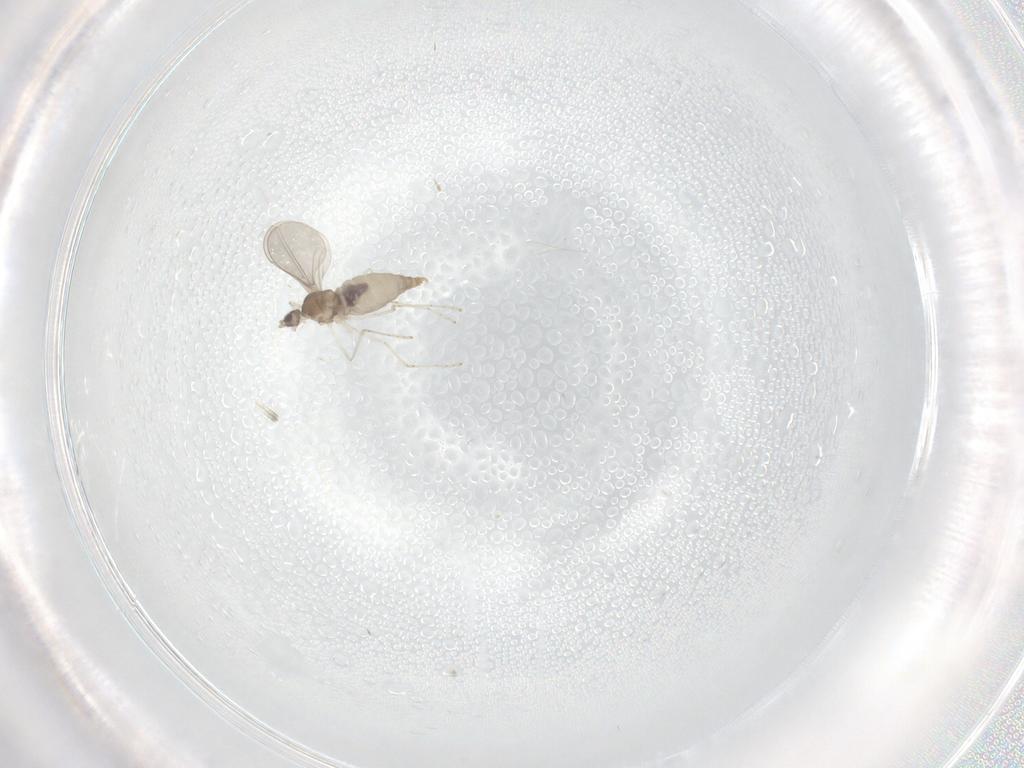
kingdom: Animalia
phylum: Arthropoda
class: Insecta
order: Diptera
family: Cecidomyiidae
